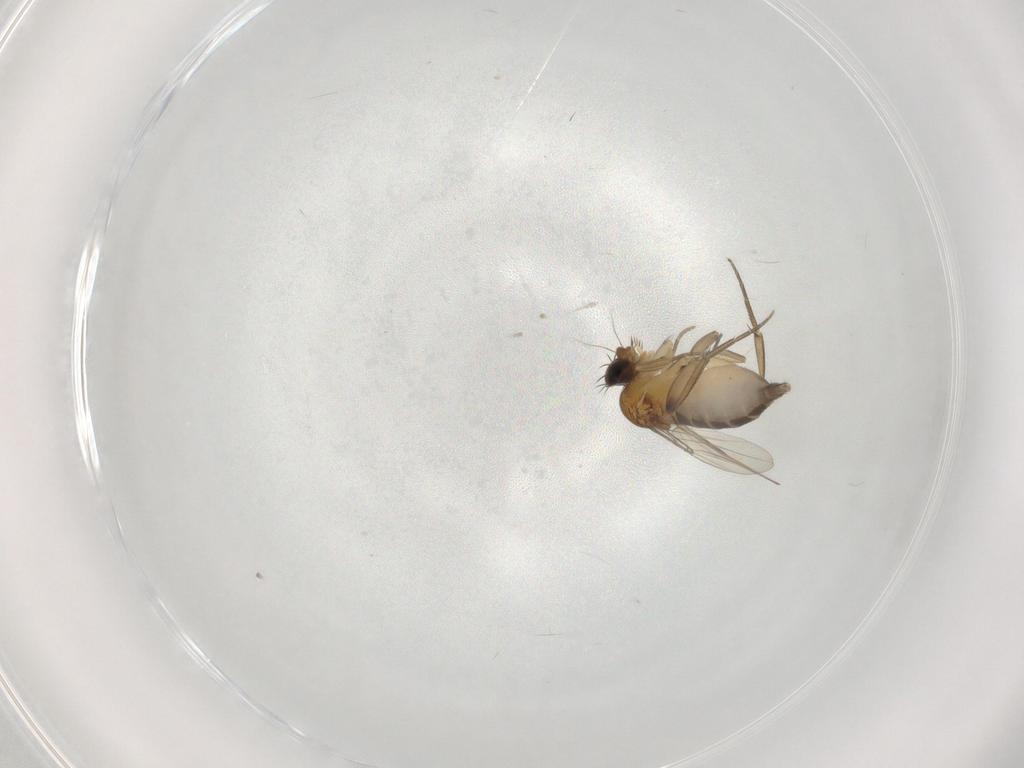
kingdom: Animalia
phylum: Arthropoda
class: Insecta
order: Diptera
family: Phoridae
